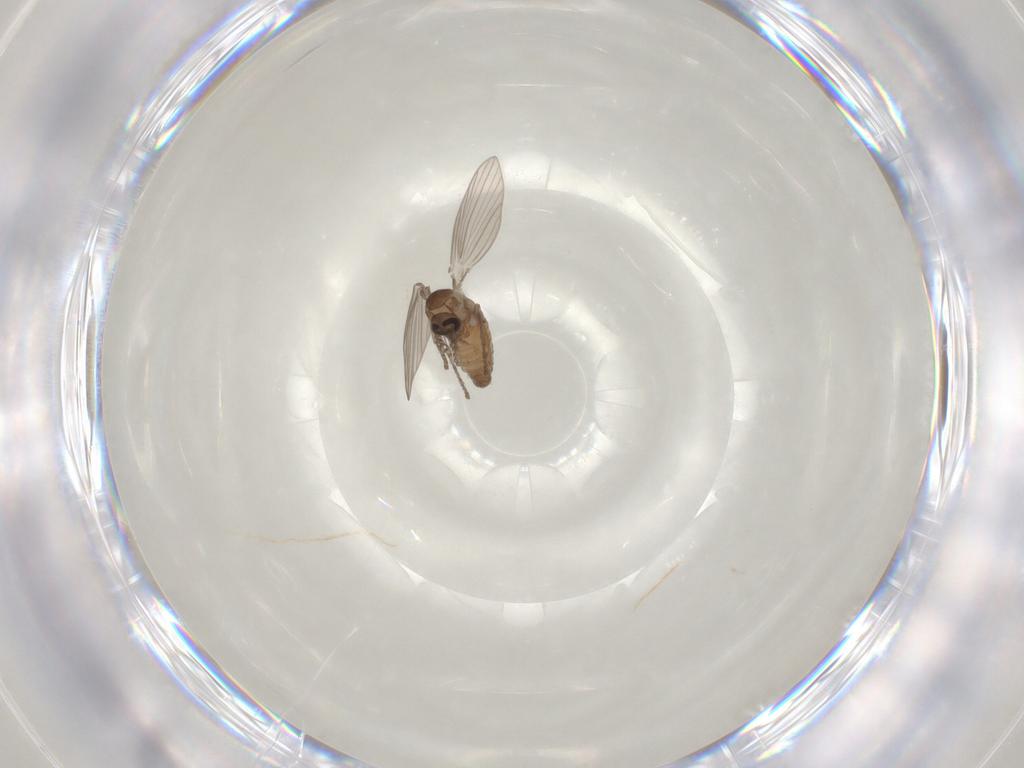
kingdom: Animalia
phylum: Arthropoda
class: Insecta
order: Diptera
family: Psychodidae
